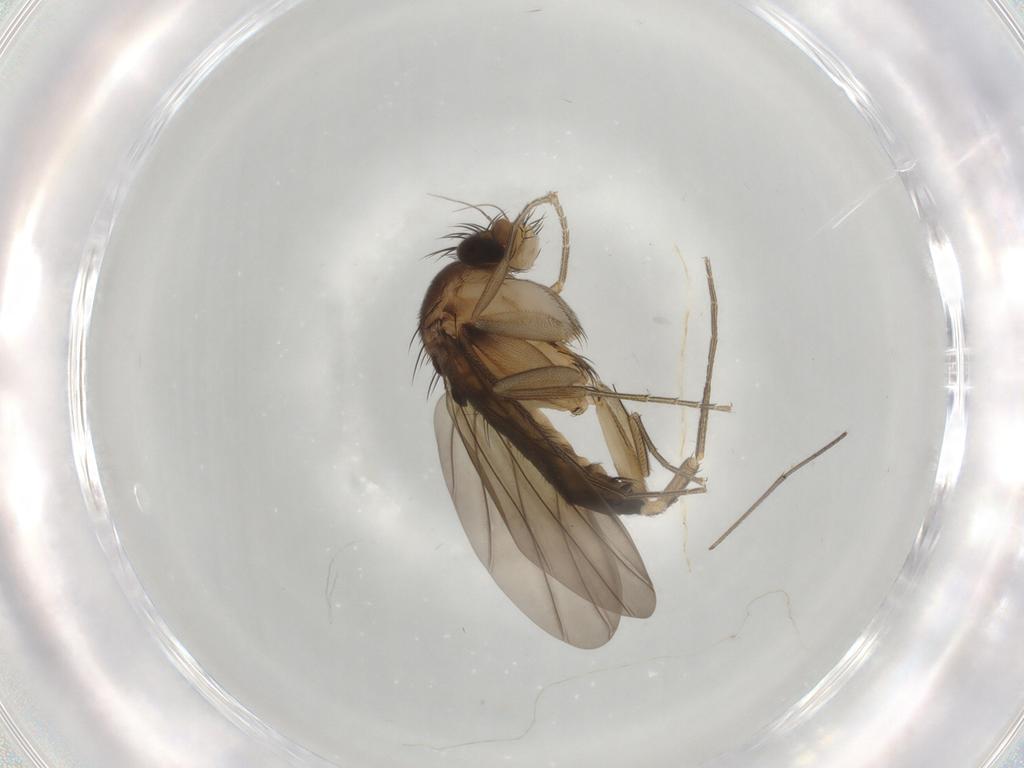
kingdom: Animalia
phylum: Arthropoda
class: Insecta
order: Diptera
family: Phoridae
